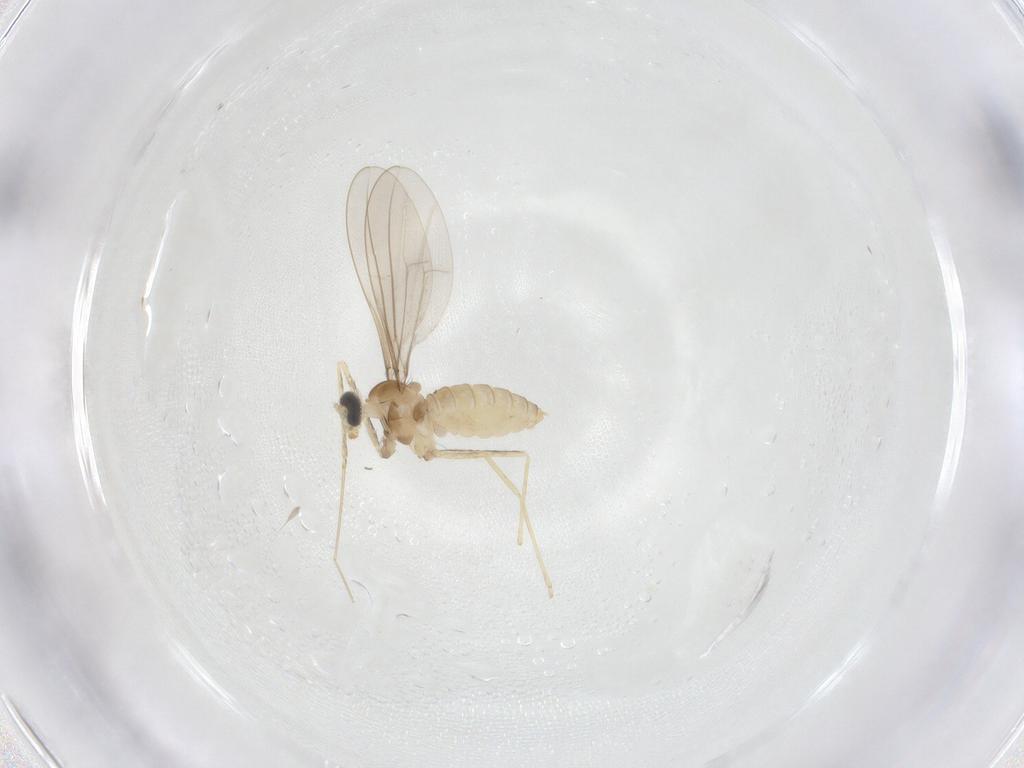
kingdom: Animalia
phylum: Arthropoda
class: Insecta
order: Diptera
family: Cecidomyiidae
